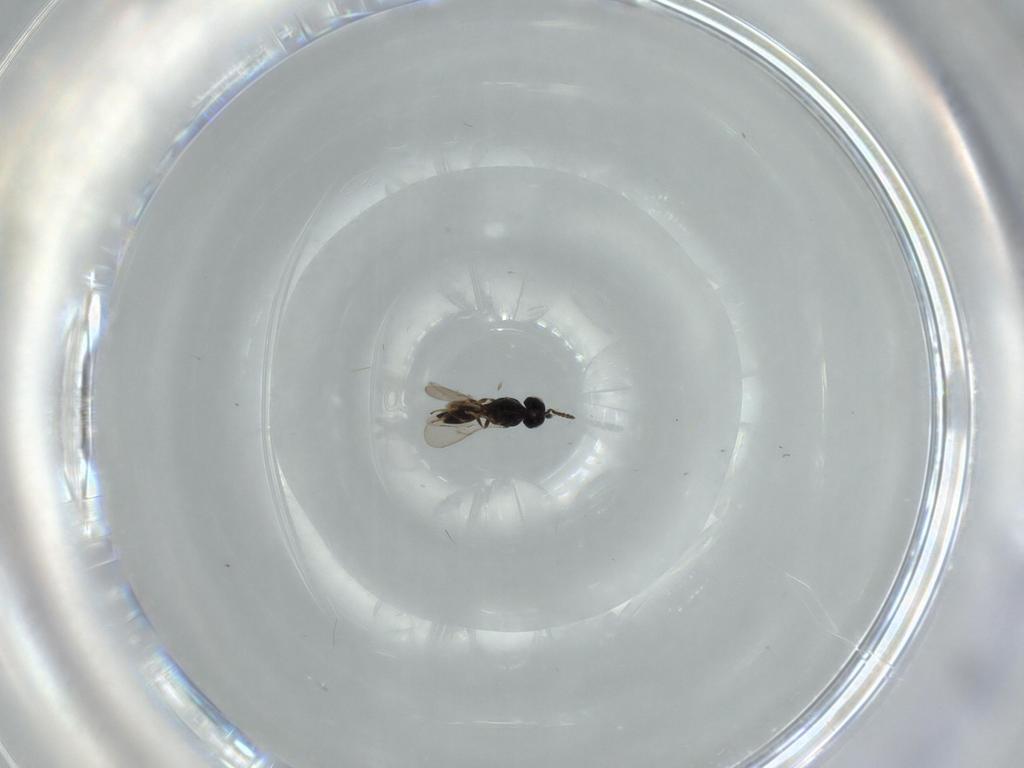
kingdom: Animalia
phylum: Arthropoda
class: Insecta
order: Hymenoptera
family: Scelionidae
